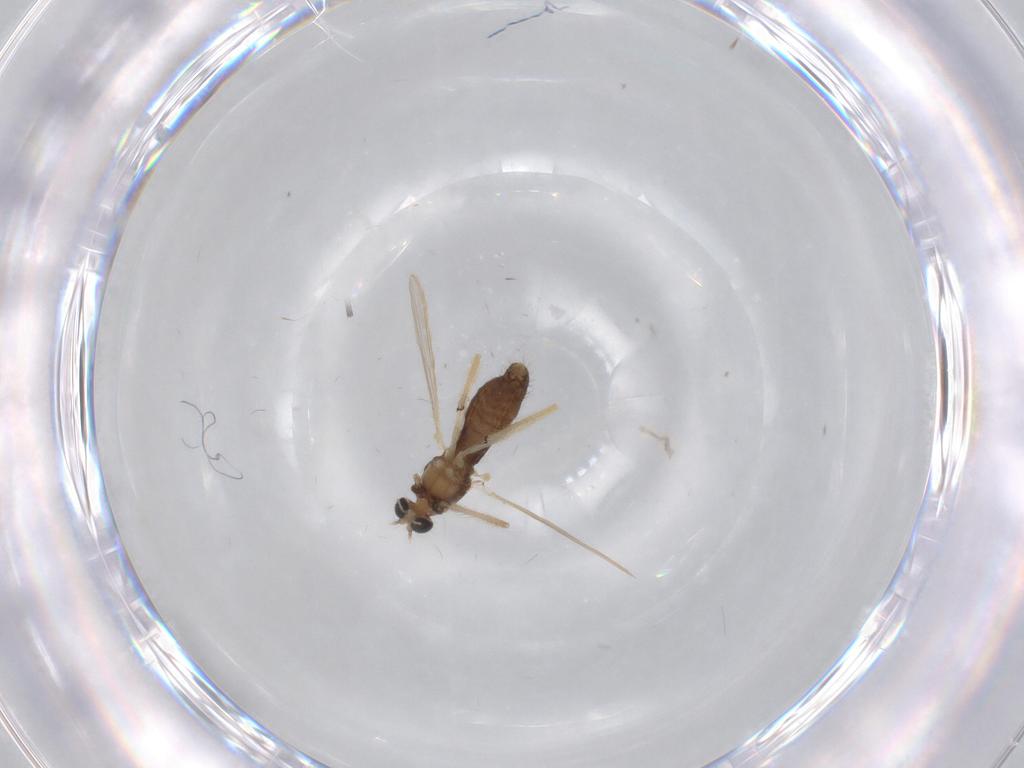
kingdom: Animalia
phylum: Arthropoda
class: Insecta
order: Diptera
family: Chironomidae
